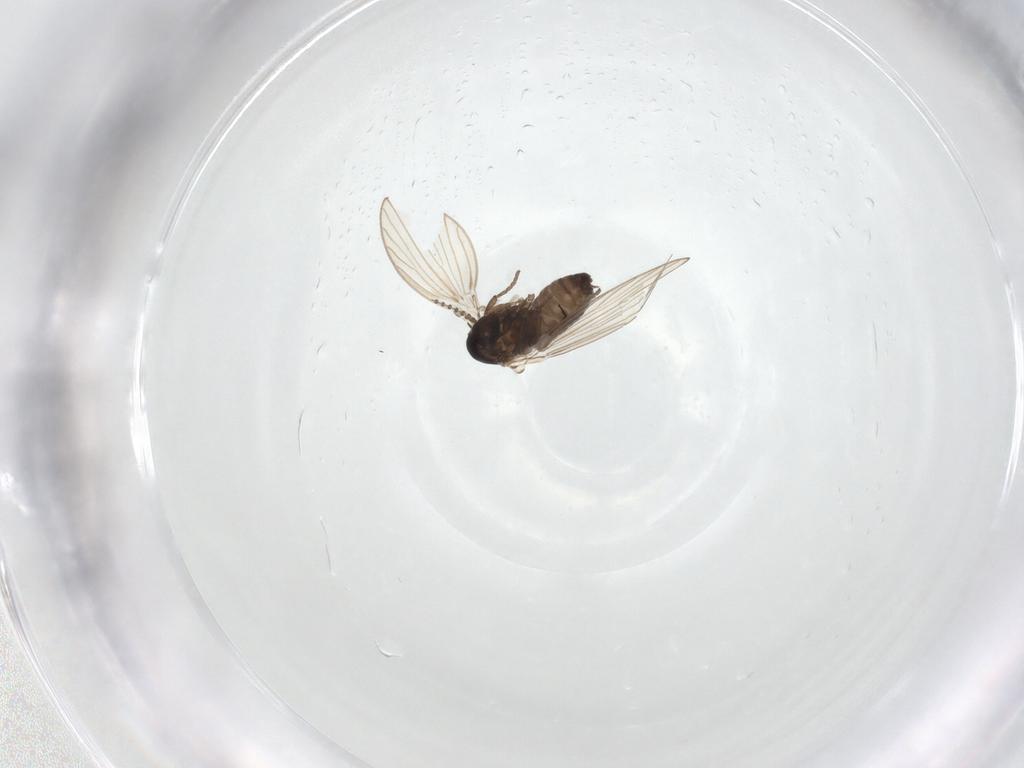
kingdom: Animalia
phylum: Arthropoda
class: Insecta
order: Diptera
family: Psychodidae
